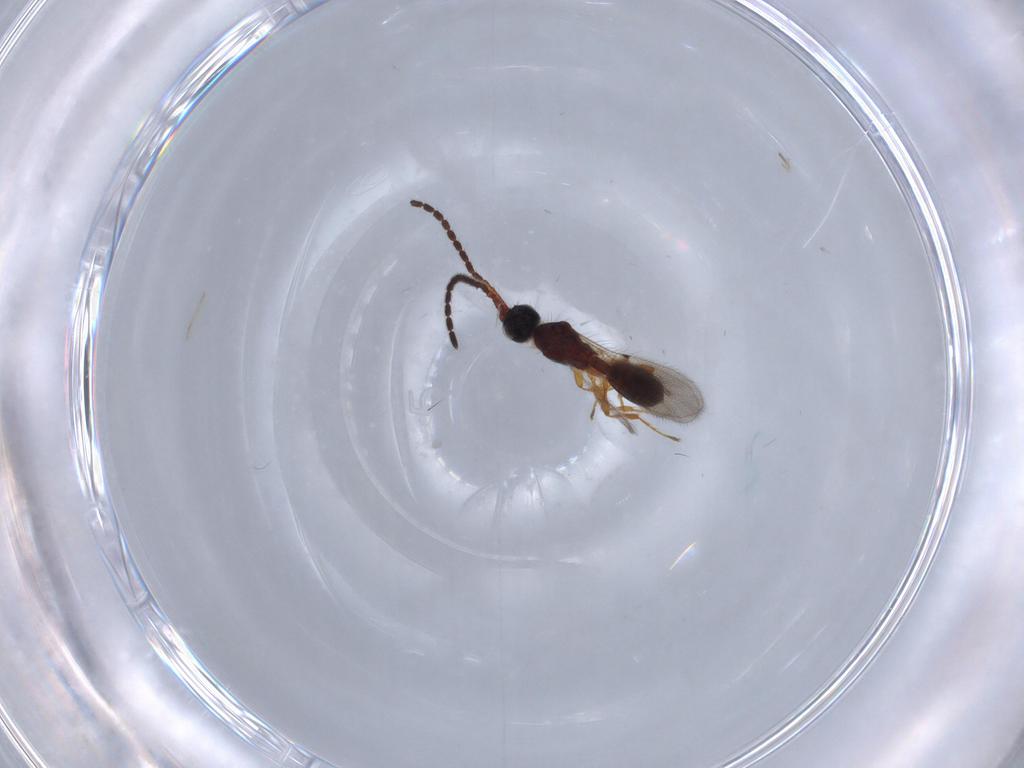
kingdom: Animalia
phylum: Arthropoda
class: Insecta
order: Hymenoptera
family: Diapriidae
